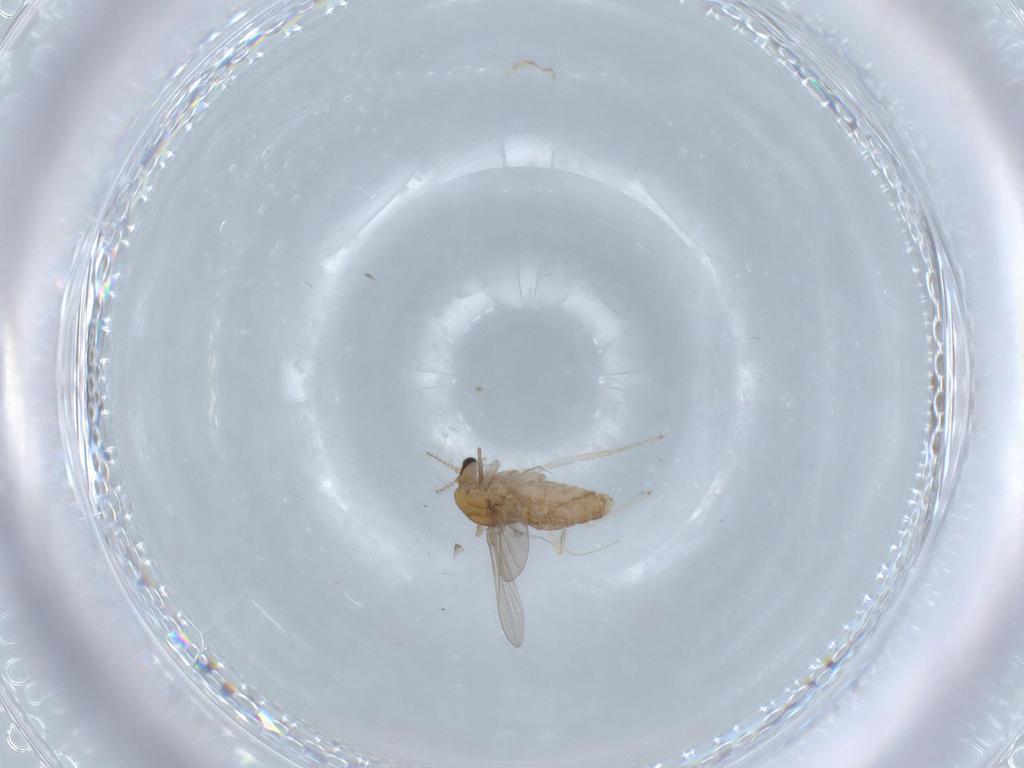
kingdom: Animalia
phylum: Arthropoda
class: Insecta
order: Diptera
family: Chironomidae
